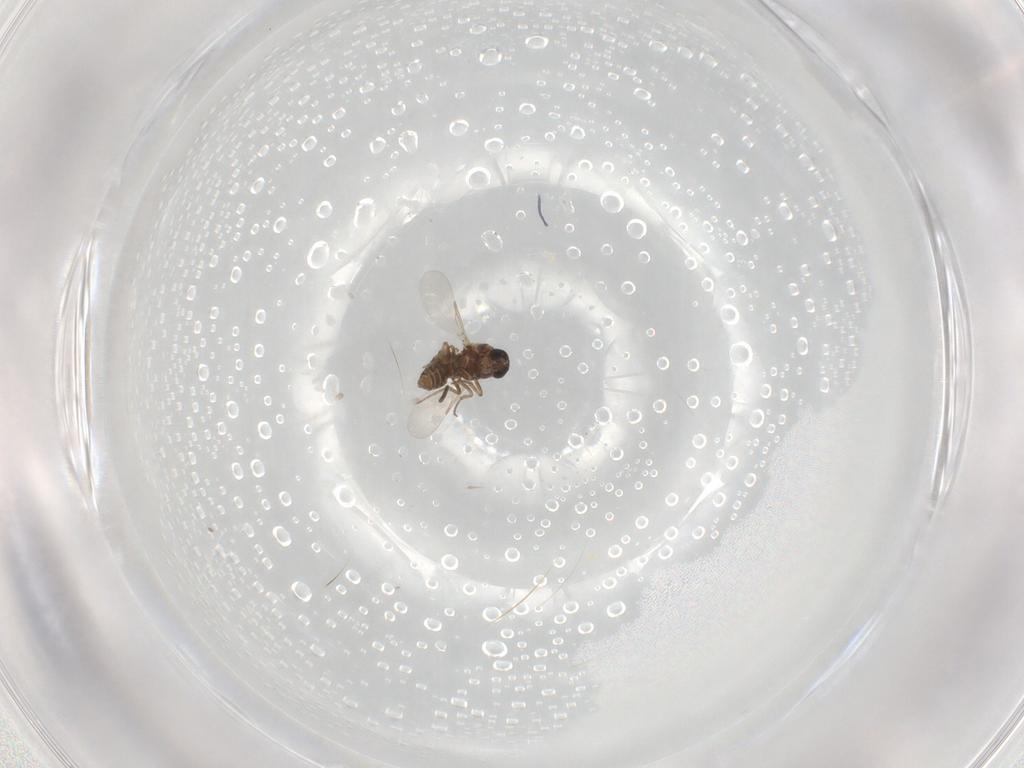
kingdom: Animalia
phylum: Arthropoda
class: Insecta
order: Diptera
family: Ceratopogonidae
